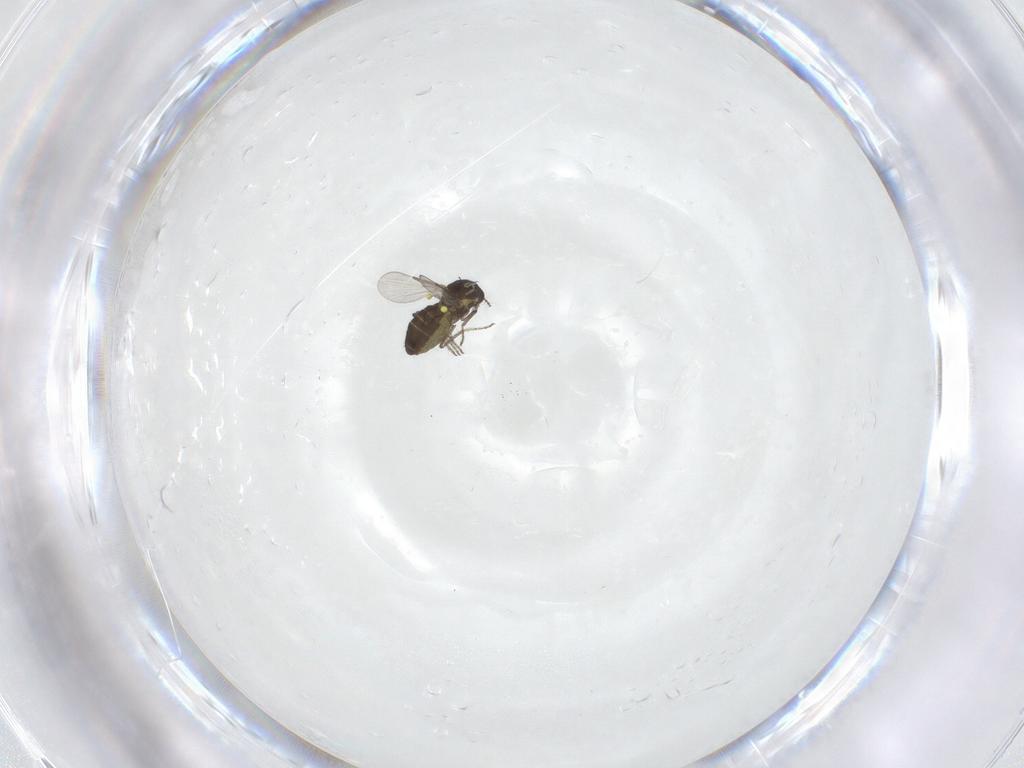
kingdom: Animalia
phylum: Arthropoda
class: Insecta
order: Diptera
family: Ceratopogonidae
